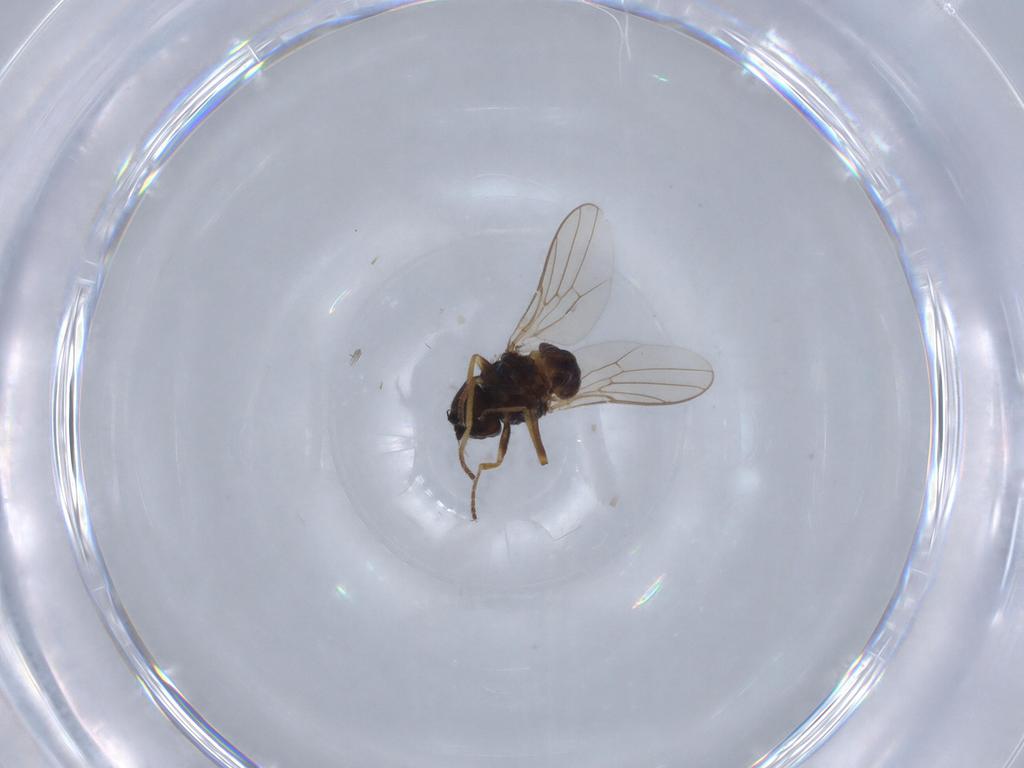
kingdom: Animalia
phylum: Arthropoda
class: Insecta
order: Diptera
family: Chloropidae
